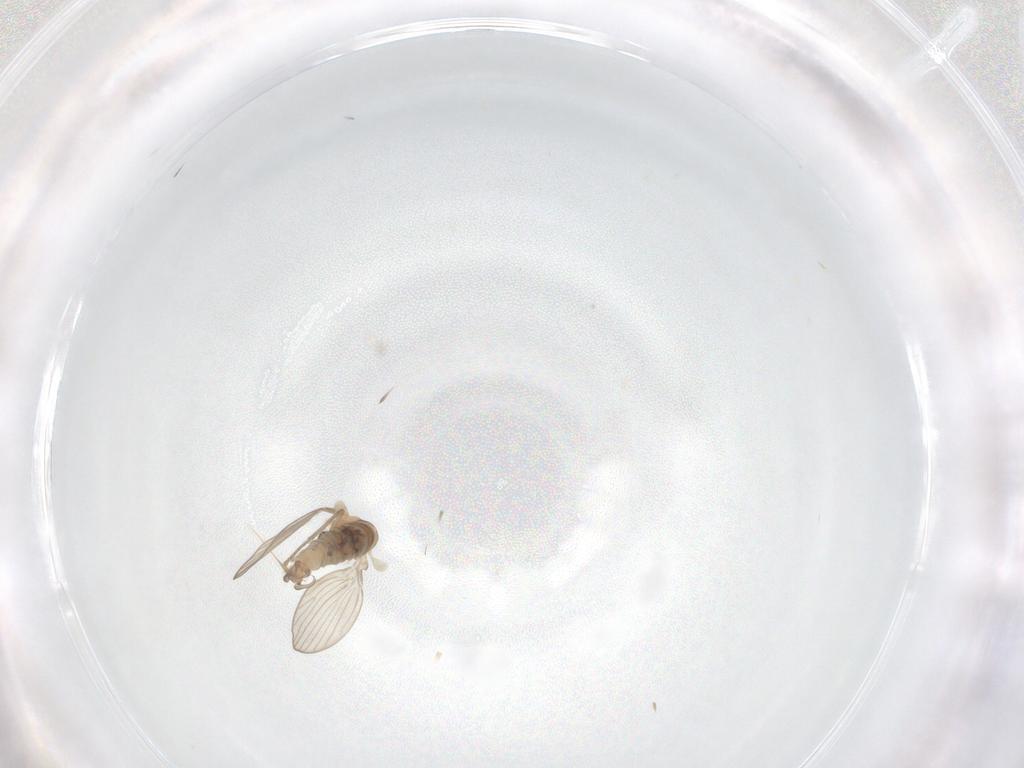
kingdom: Animalia
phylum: Arthropoda
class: Insecta
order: Diptera
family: Psychodidae
